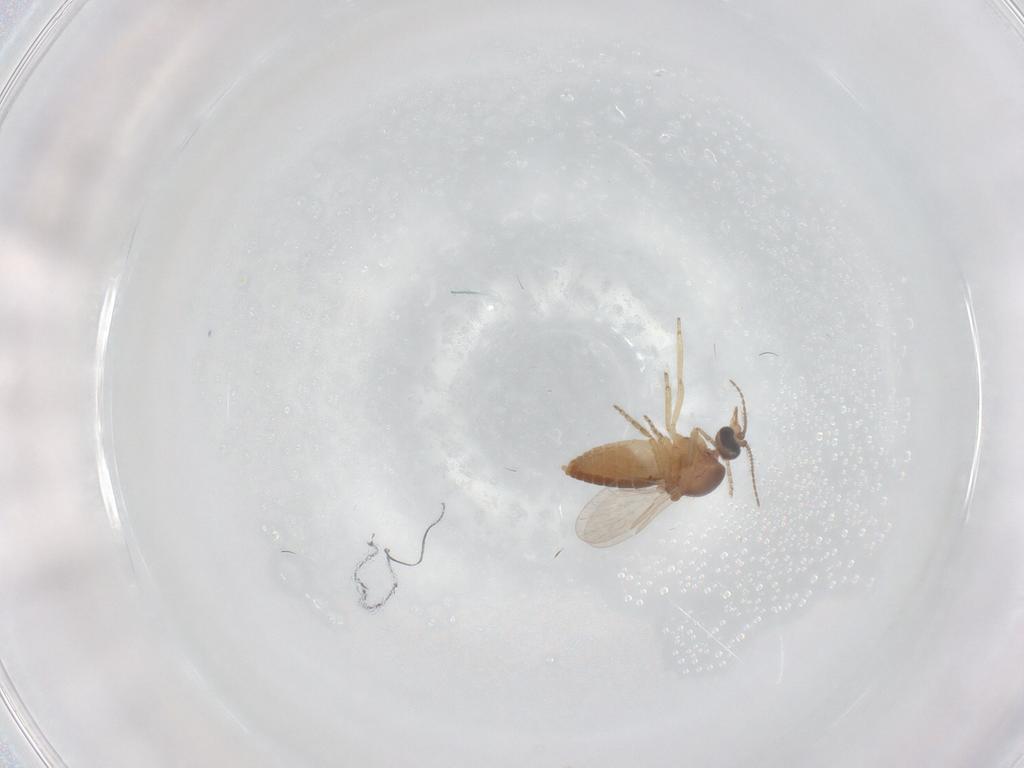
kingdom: Animalia
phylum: Arthropoda
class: Insecta
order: Diptera
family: Ceratopogonidae
